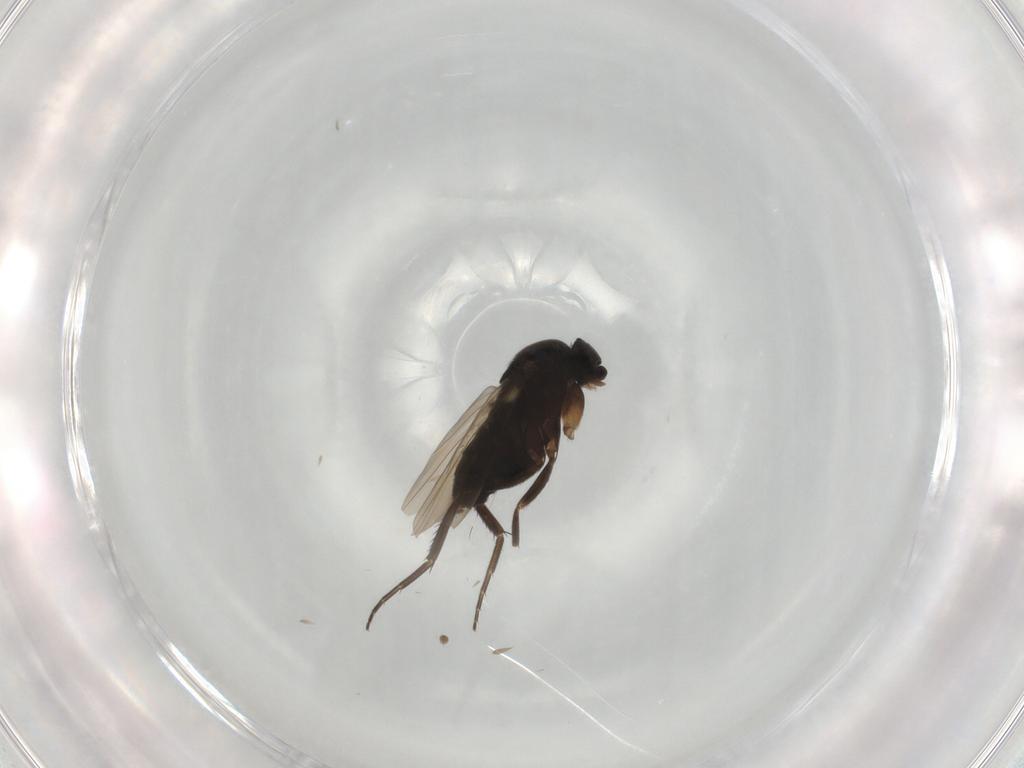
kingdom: Animalia
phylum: Arthropoda
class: Insecta
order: Diptera
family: Phoridae
